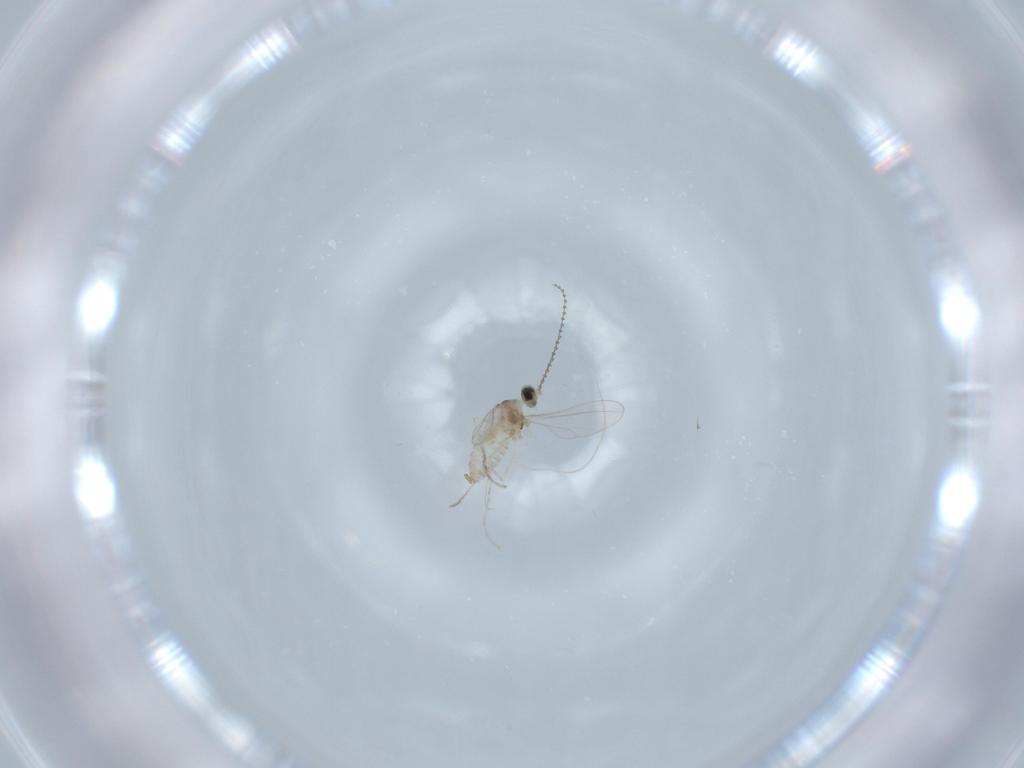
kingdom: Animalia
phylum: Arthropoda
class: Insecta
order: Diptera
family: Cecidomyiidae
